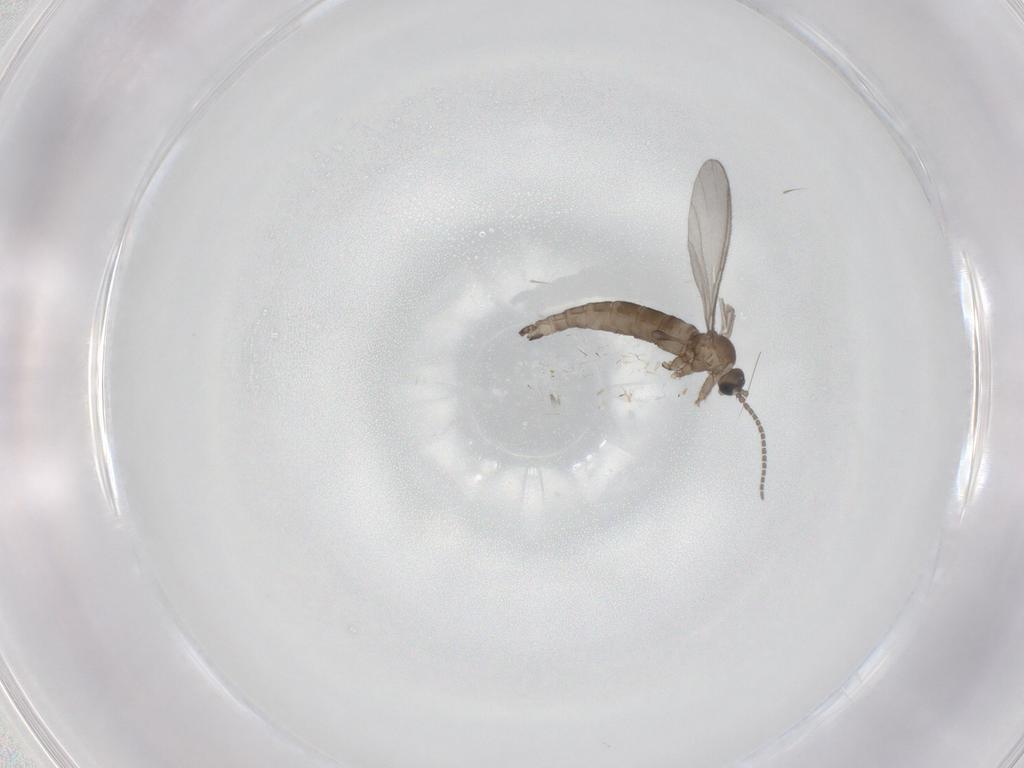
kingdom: Animalia
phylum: Arthropoda
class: Insecta
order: Diptera
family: Sciaridae
